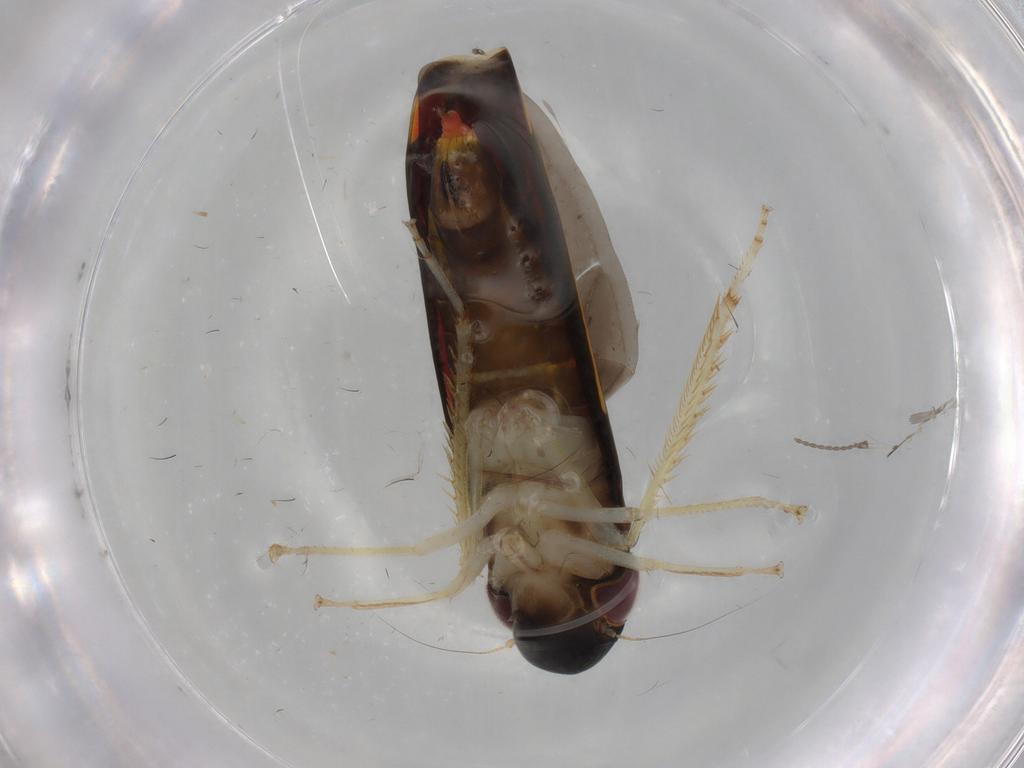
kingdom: Animalia
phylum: Arthropoda
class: Insecta
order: Hemiptera
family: Cicadellidae
